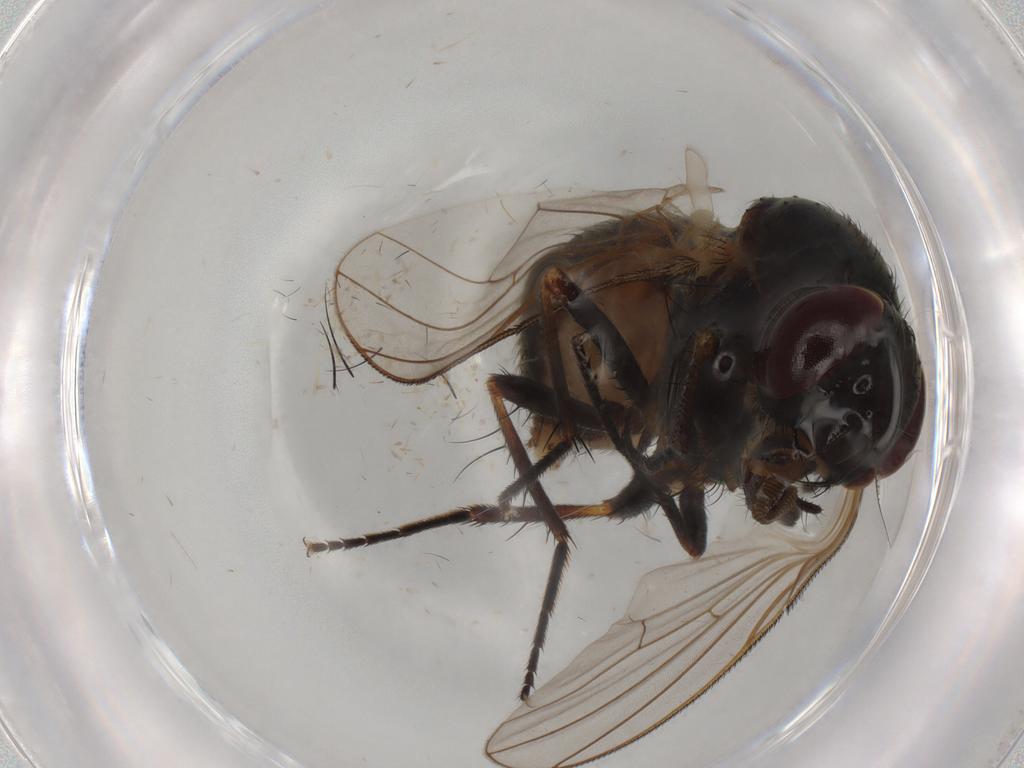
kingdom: Animalia
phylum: Arthropoda
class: Insecta
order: Diptera
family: Fannia
